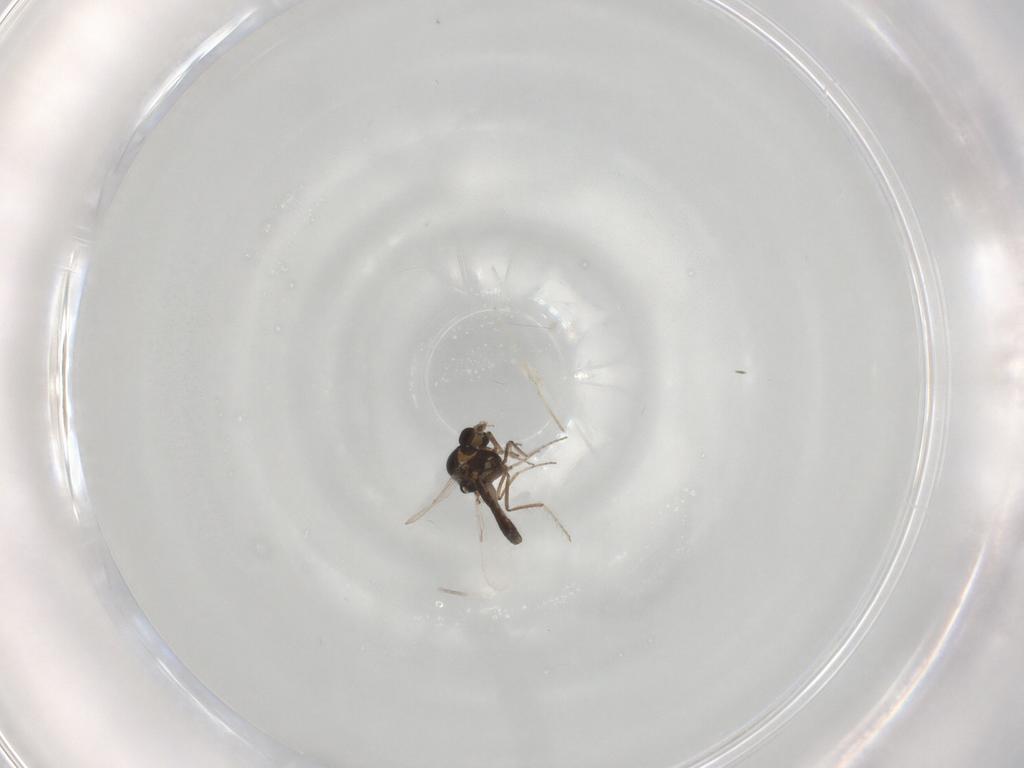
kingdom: Animalia
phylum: Arthropoda
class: Insecta
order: Diptera
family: Ceratopogonidae
